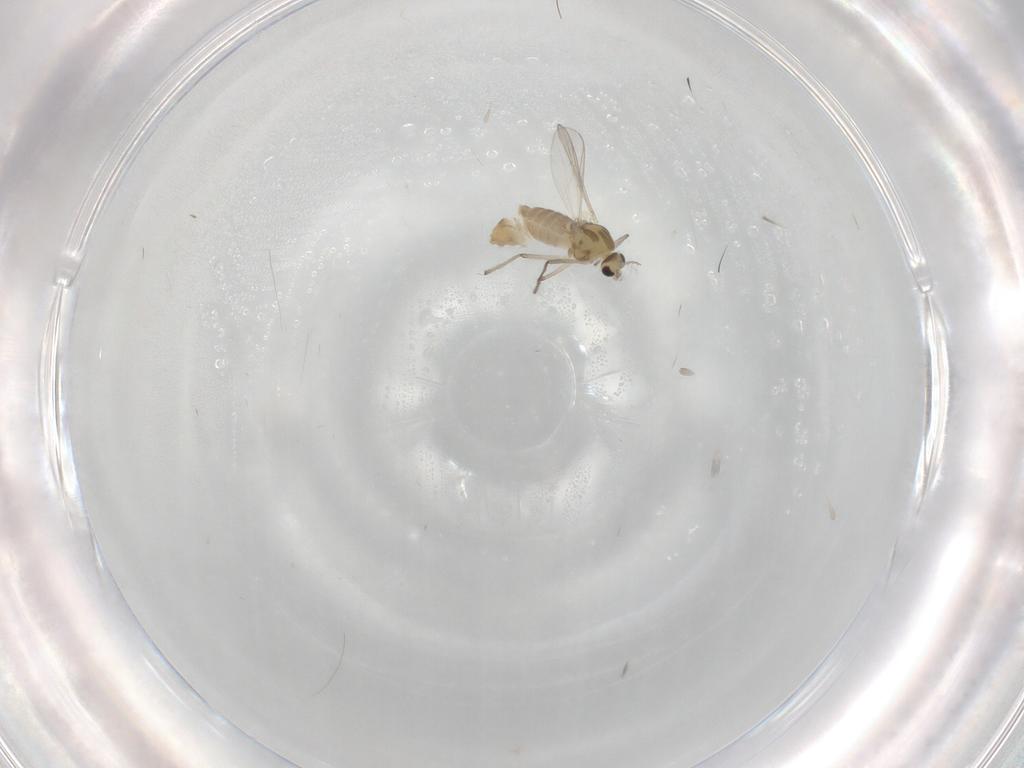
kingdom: Animalia
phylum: Arthropoda
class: Insecta
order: Diptera
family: Chironomidae
